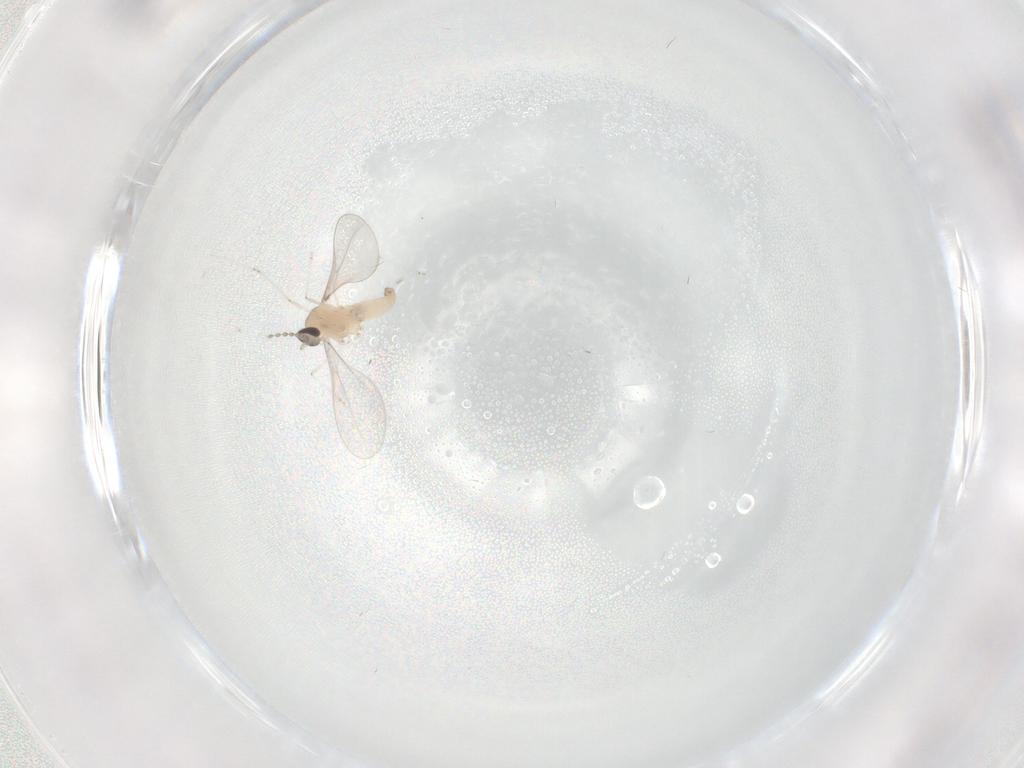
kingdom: Animalia
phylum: Arthropoda
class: Insecta
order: Diptera
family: Cecidomyiidae
